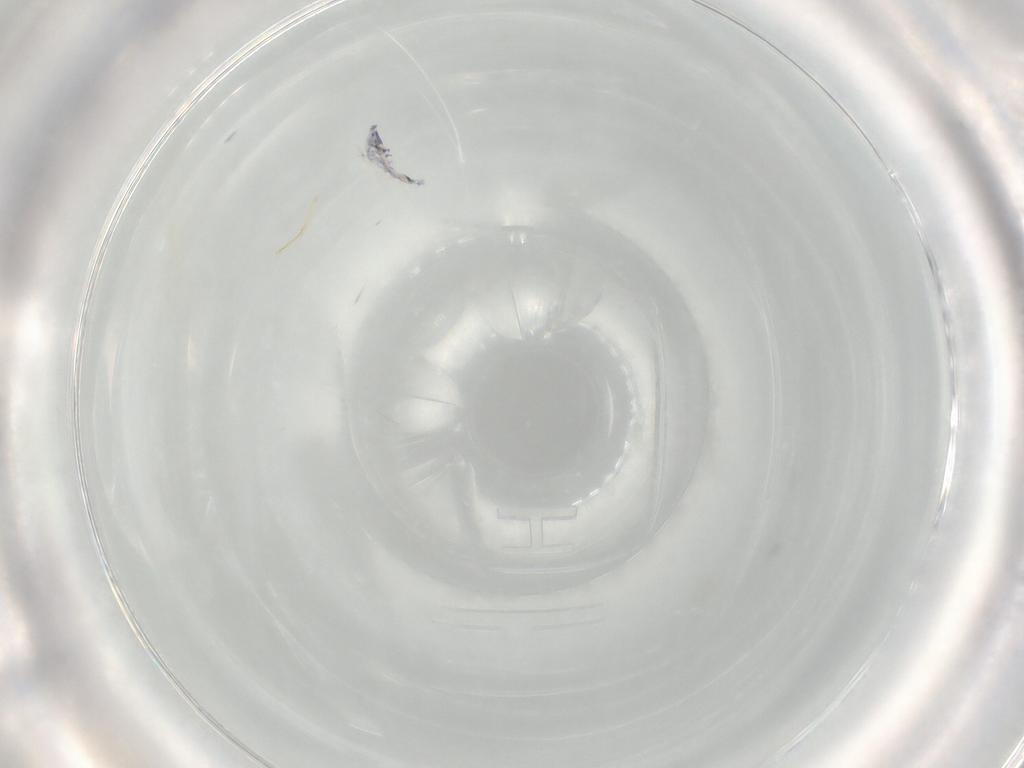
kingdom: Animalia
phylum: Arthropoda
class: Collembola
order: Entomobryomorpha
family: Entomobryidae
